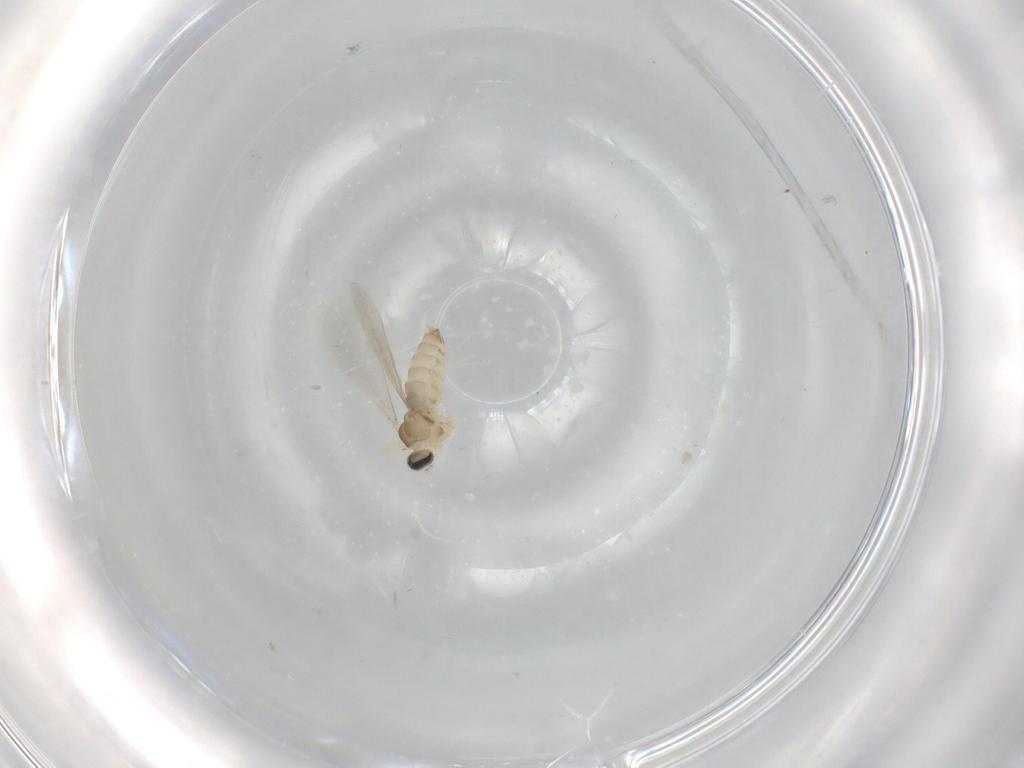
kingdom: Animalia
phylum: Arthropoda
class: Insecta
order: Diptera
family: Cecidomyiidae
